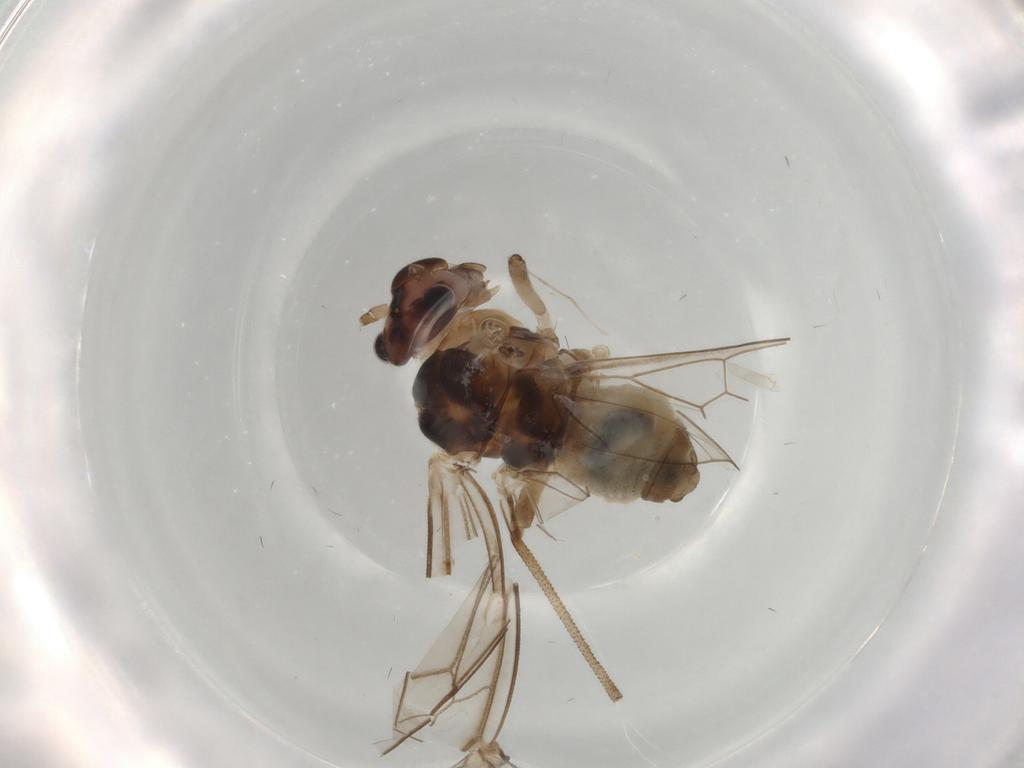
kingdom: Animalia
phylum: Arthropoda
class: Insecta
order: Psocodea
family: Stenopsocidae
